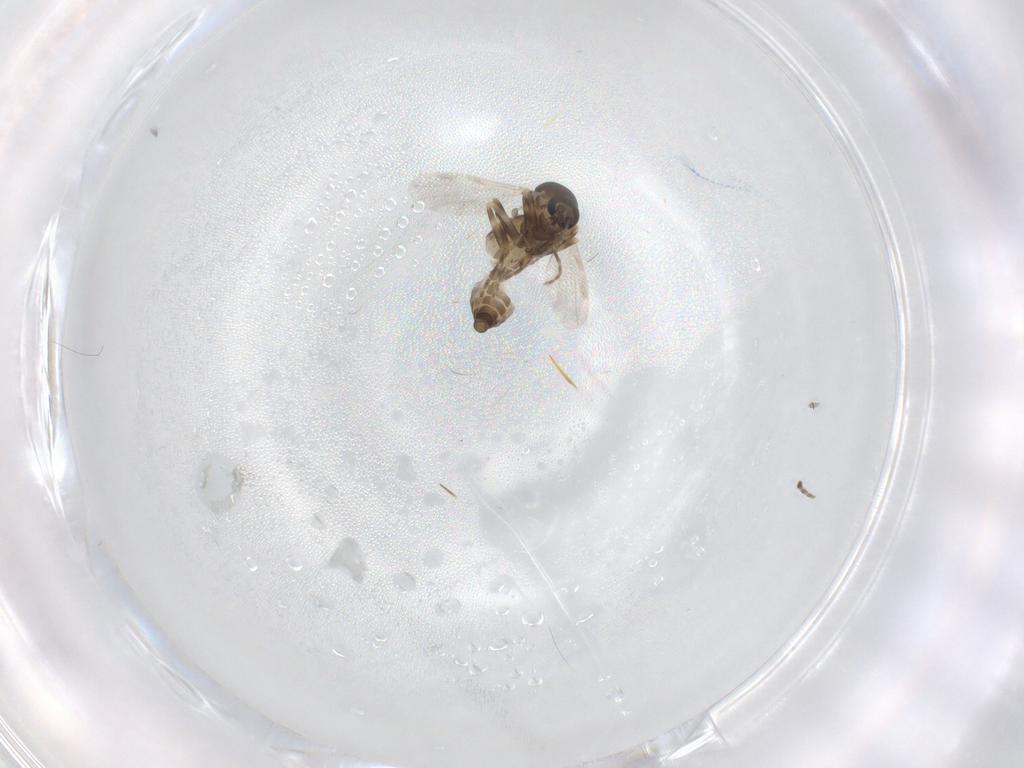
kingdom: Animalia
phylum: Arthropoda
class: Insecta
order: Diptera
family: Ceratopogonidae
